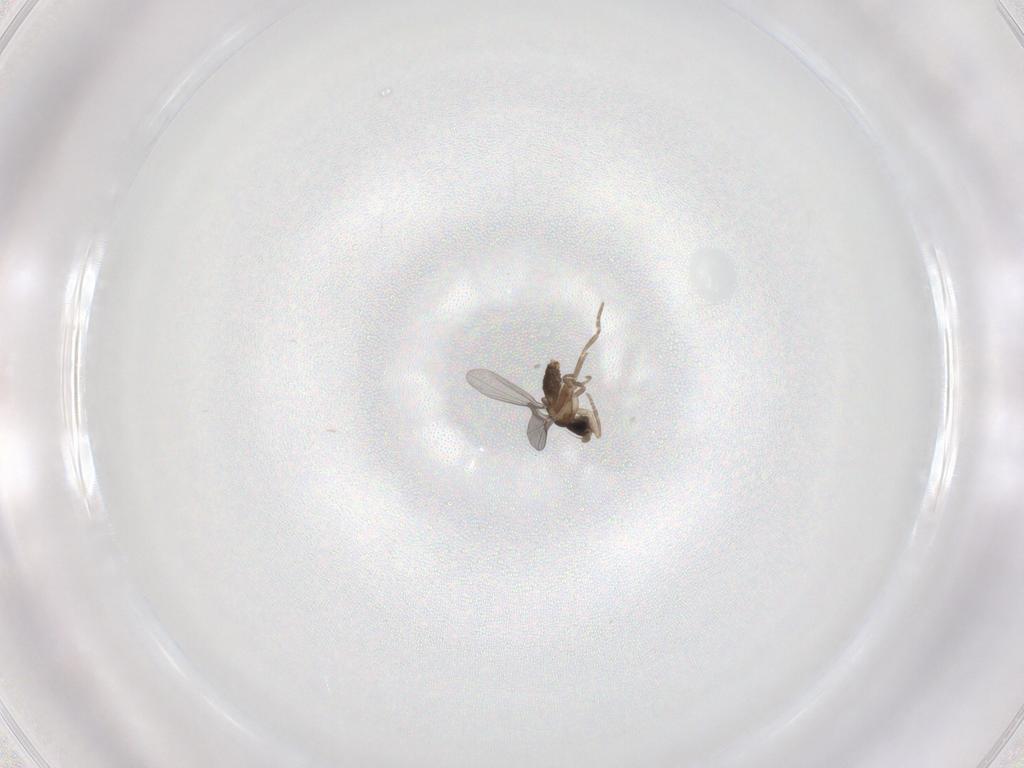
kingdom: Animalia
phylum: Arthropoda
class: Insecta
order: Diptera
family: Phoridae
